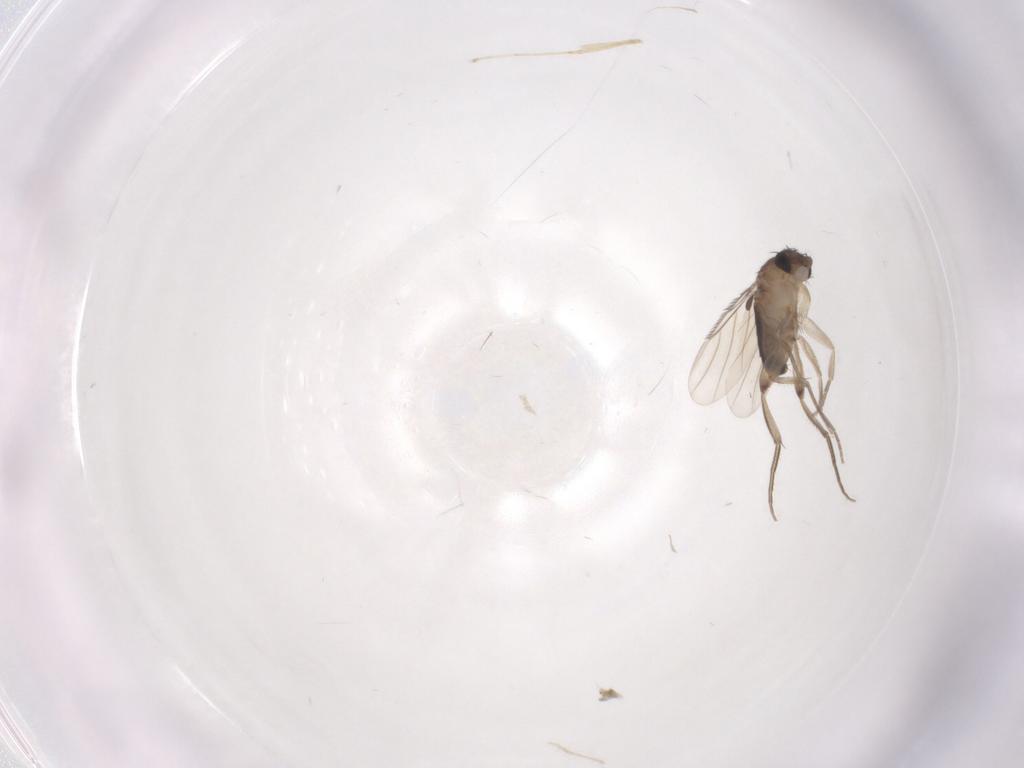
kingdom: Animalia
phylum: Arthropoda
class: Insecta
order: Diptera
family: Phoridae
